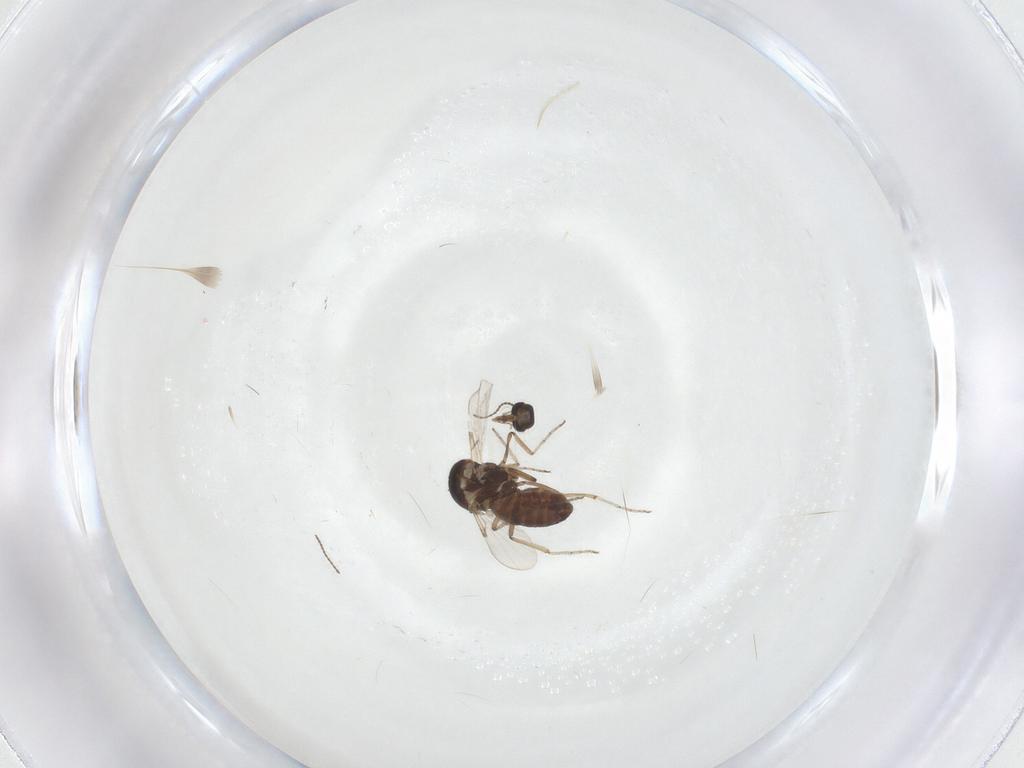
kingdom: Animalia
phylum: Arthropoda
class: Insecta
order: Diptera
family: Ceratopogonidae
